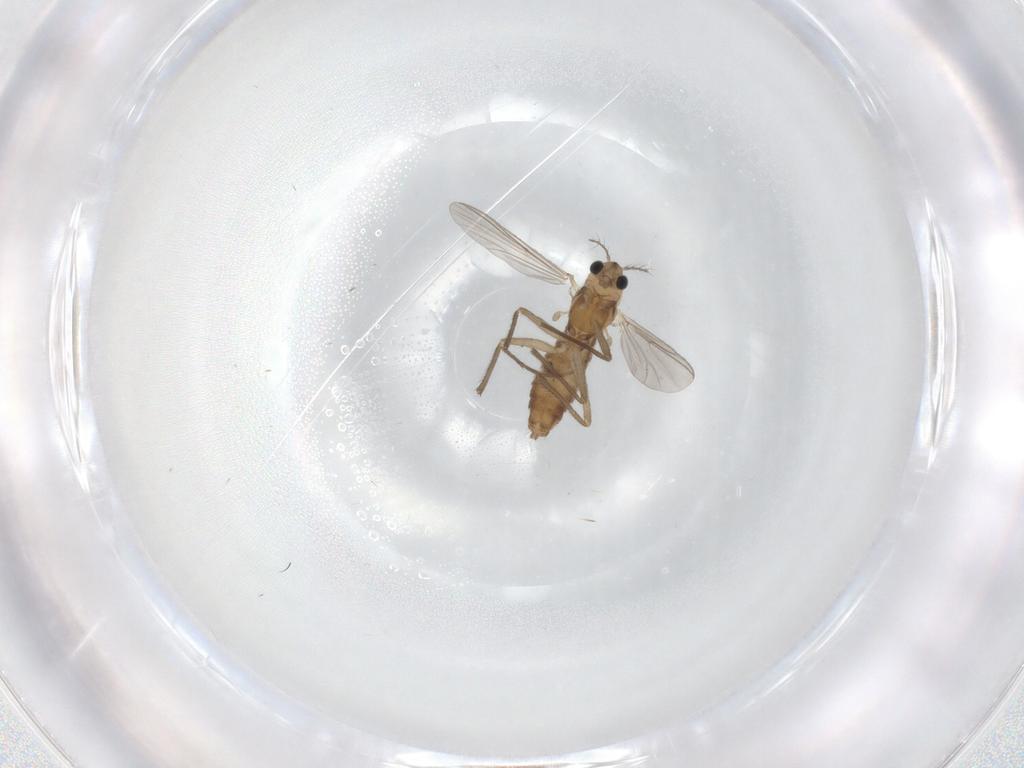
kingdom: Animalia
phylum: Arthropoda
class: Insecta
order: Diptera
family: Chironomidae
